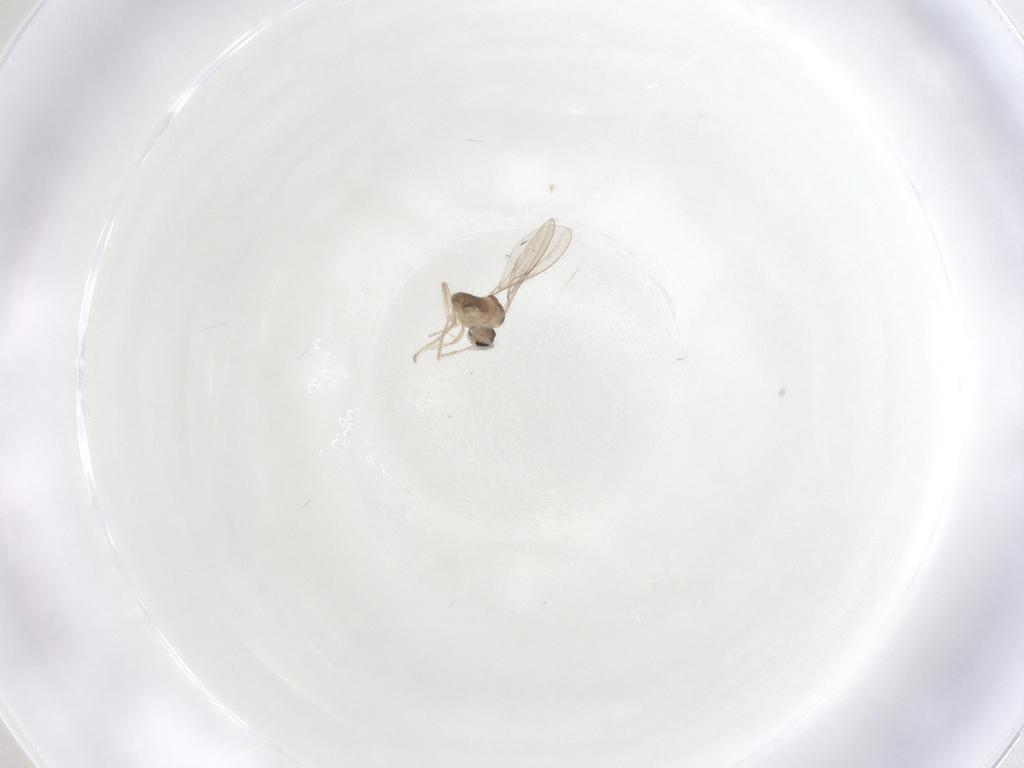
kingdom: Animalia
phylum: Arthropoda
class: Insecta
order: Diptera
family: Cecidomyiidae
